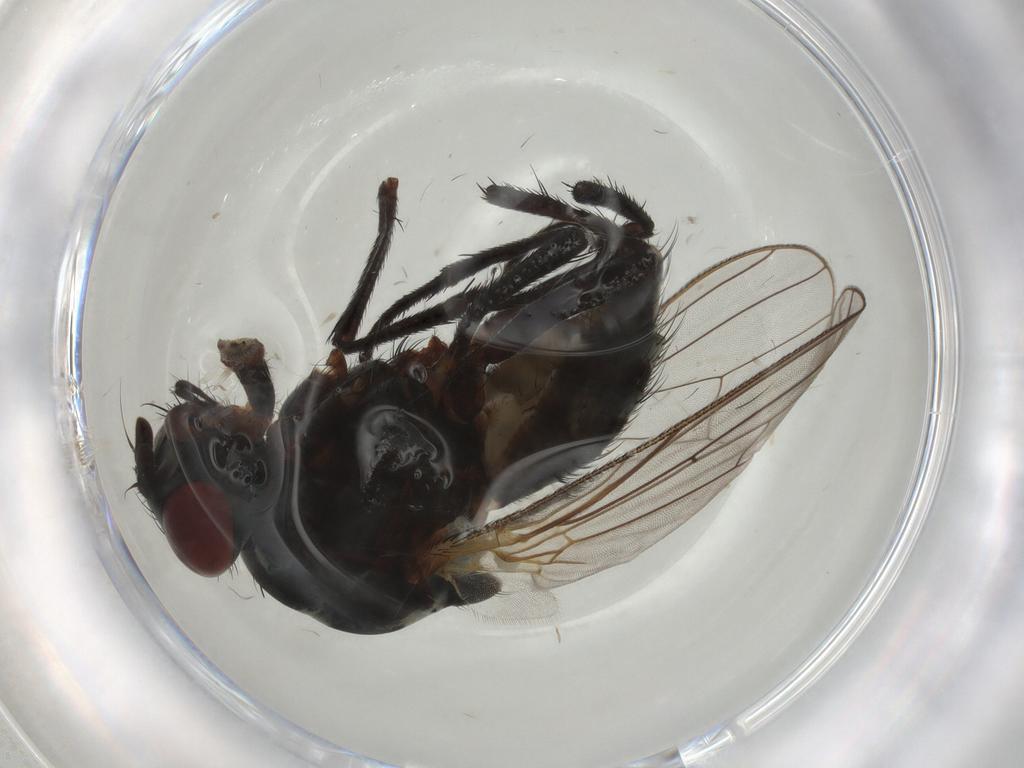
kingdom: Animalia
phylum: Arthropoda
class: Insecta
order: Diptera
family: Anthomyiidae
